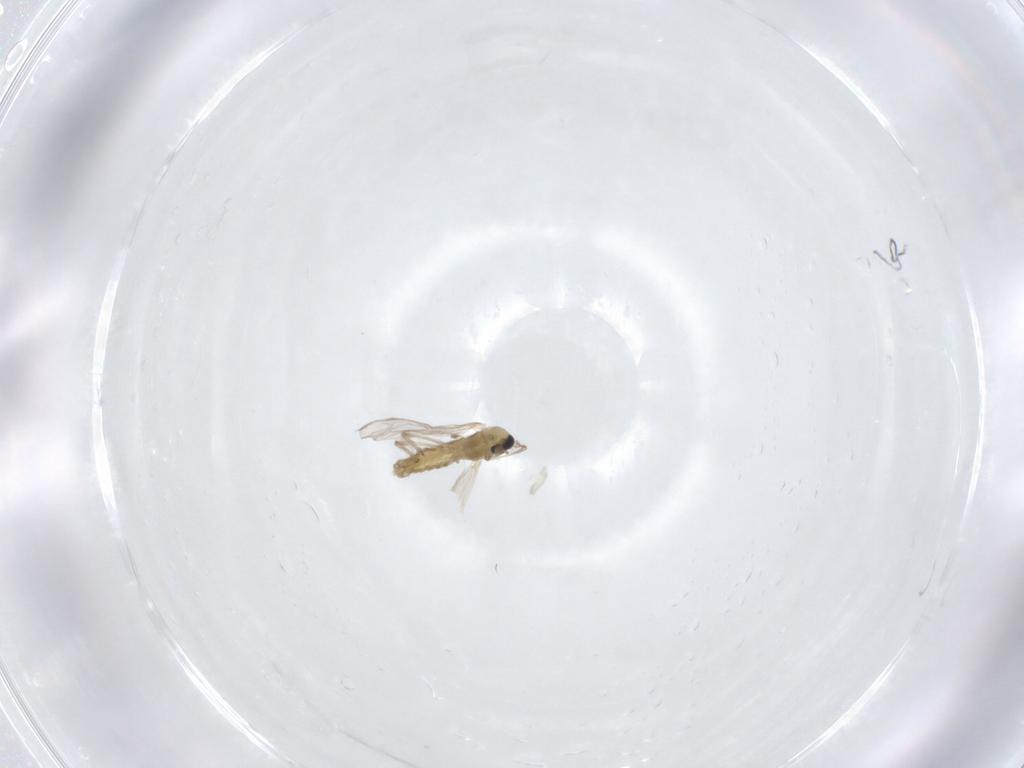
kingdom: Animalia
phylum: Arthropoda
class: Insecta
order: Diptera
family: Chironomidae
